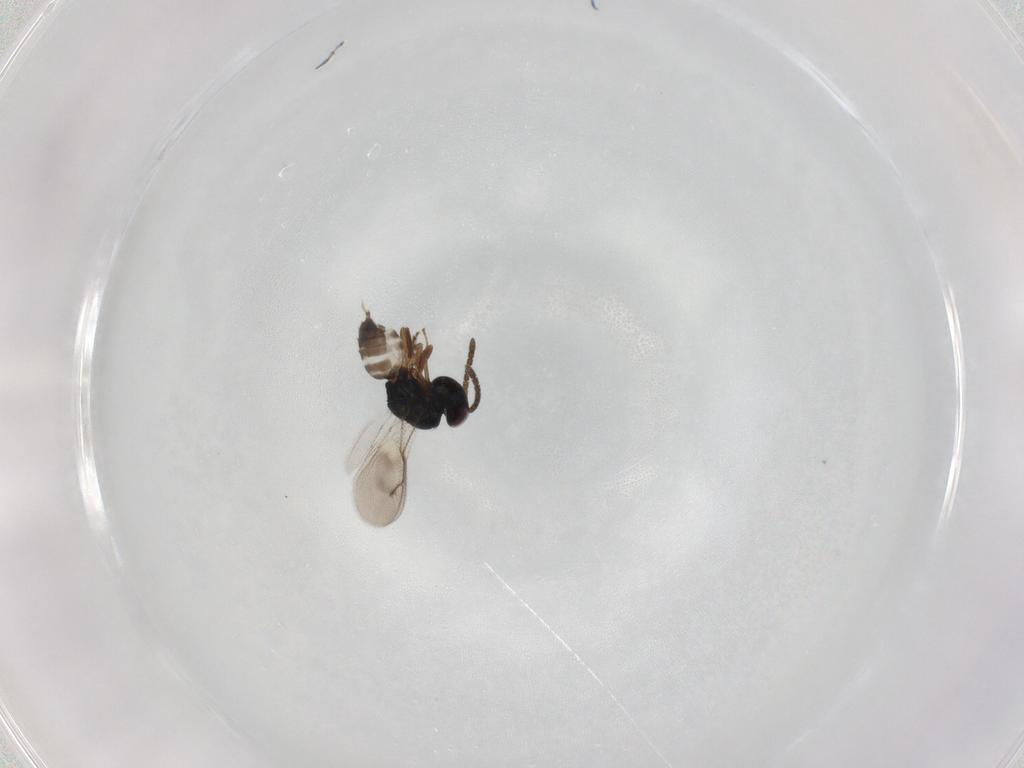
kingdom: Animalia
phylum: Arthropoda
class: Insecta
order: Hymenoptera
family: Pteromalidae
